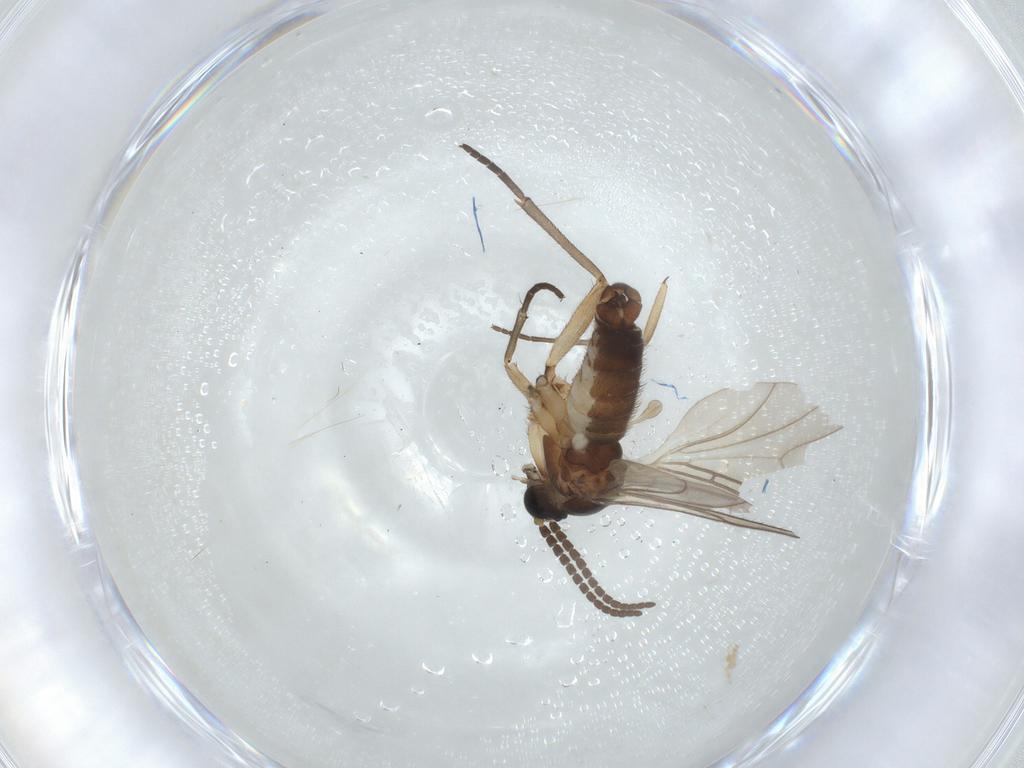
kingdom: Animalia
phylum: Arthropoda
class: Insecta
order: Diptera
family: Sciaridae
